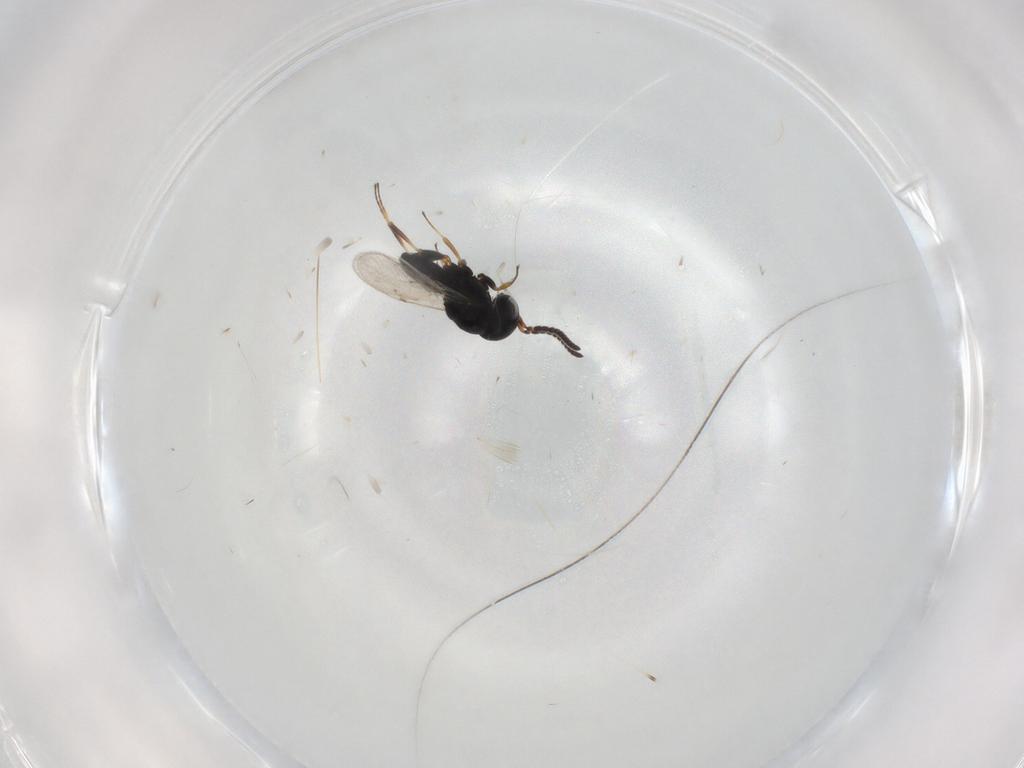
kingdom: Animalia
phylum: Arthropoda
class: Insecta
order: Coleoptera
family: Curculionidae
